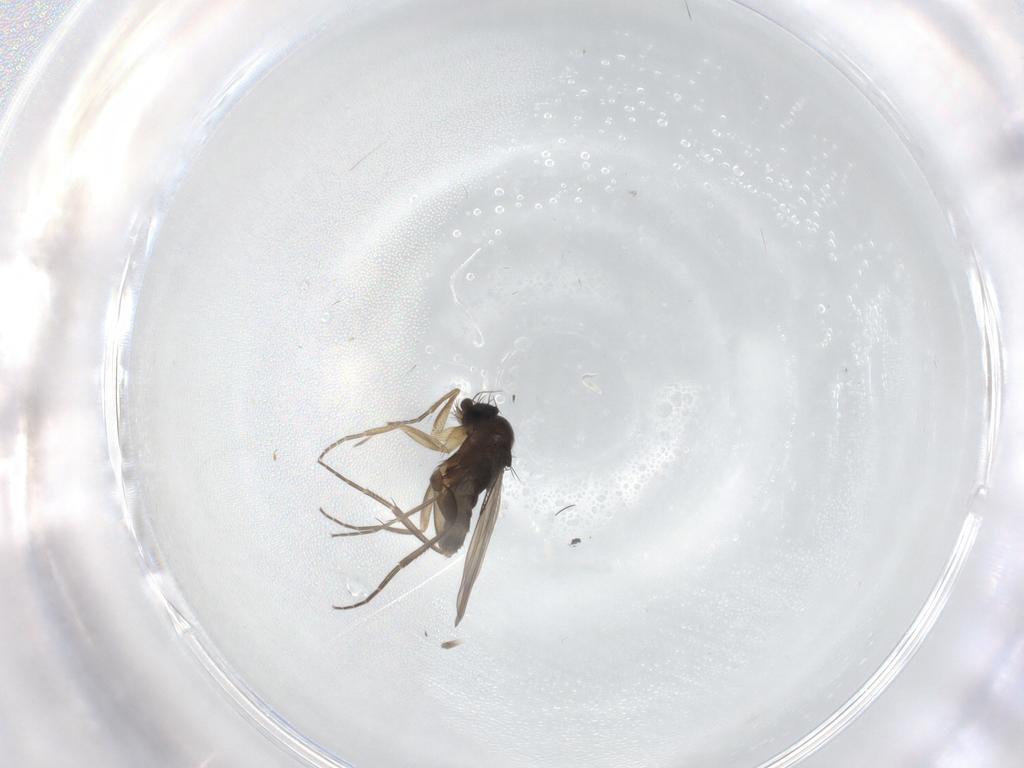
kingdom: Animalia
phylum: Arthropoda
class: Insecta
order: Diptera
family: Chironomidae
